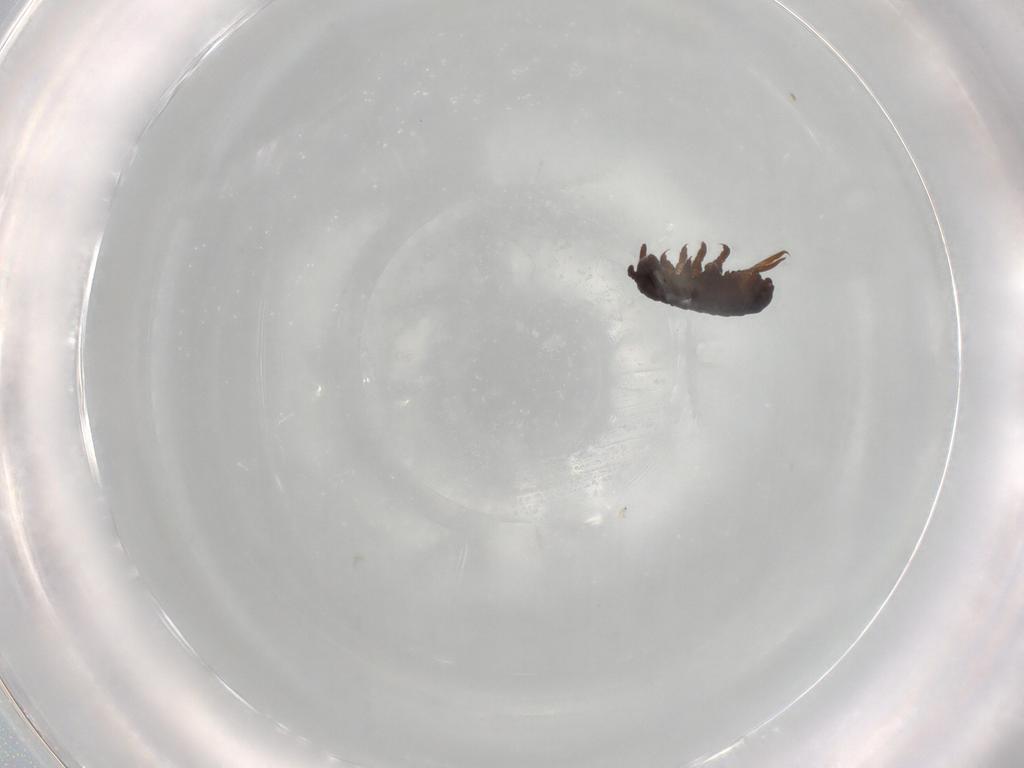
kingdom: Animalia
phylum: Arthropoda
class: Collembola
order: Poduromorpha
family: Poduridae
